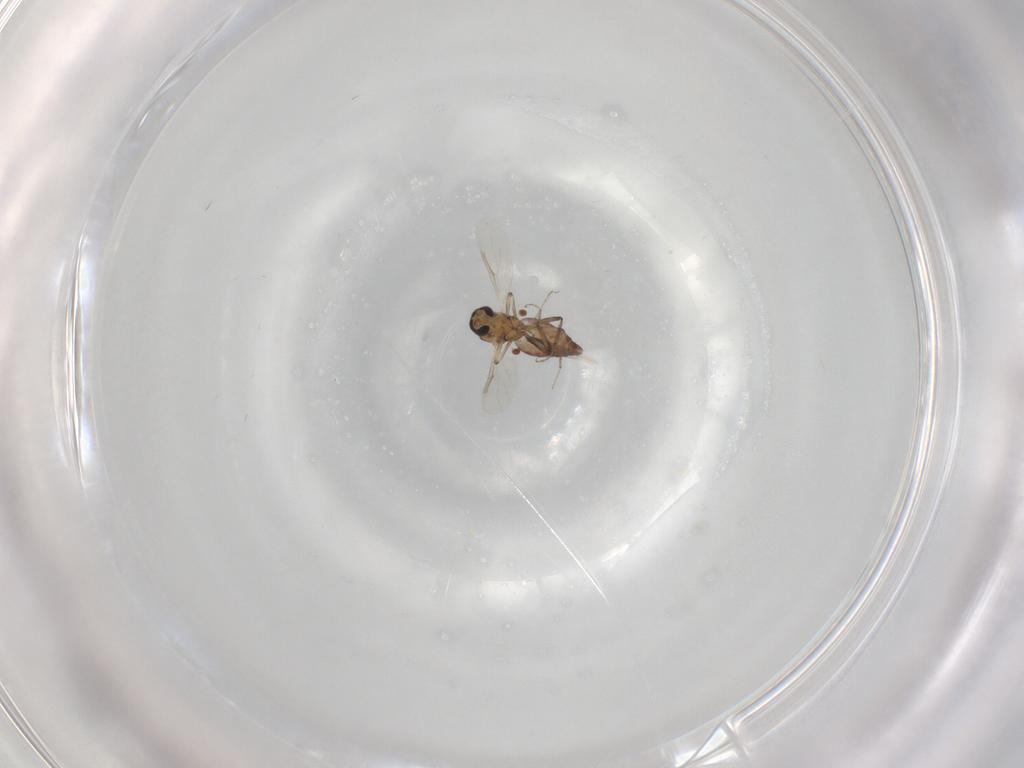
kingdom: Animalia
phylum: Arthropoda
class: Insecta
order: Diptera
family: Ceratopogonidae
